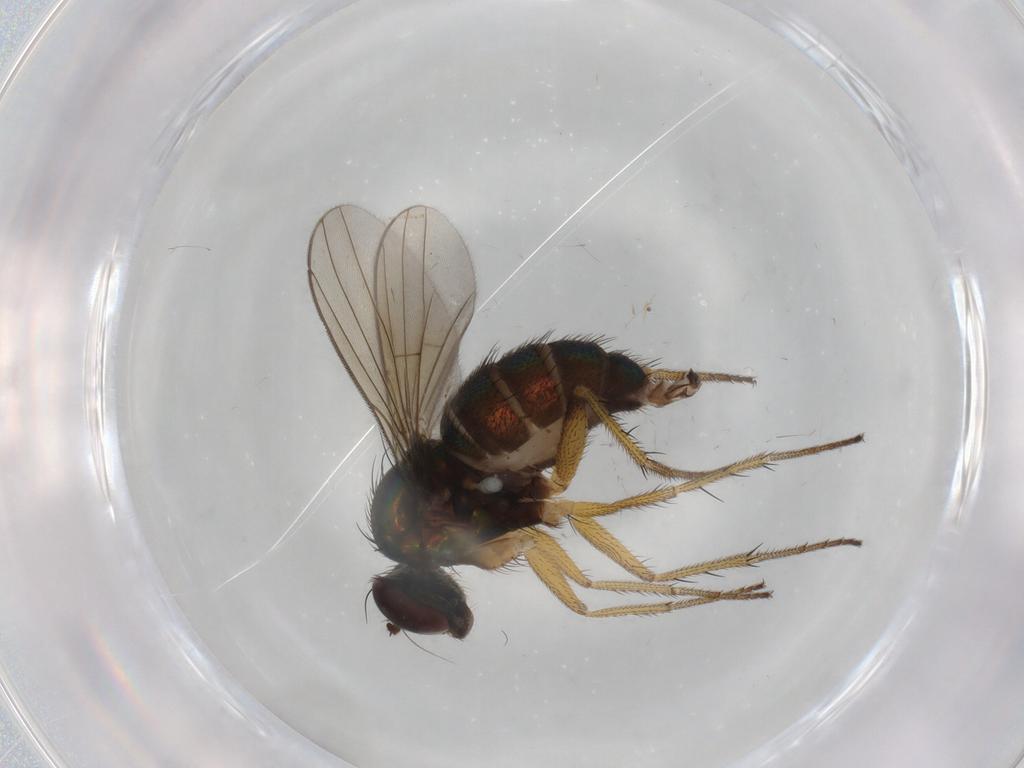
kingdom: Animalia
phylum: Arthropoda
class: Insecta
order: Diptera
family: Dolichopodidae
